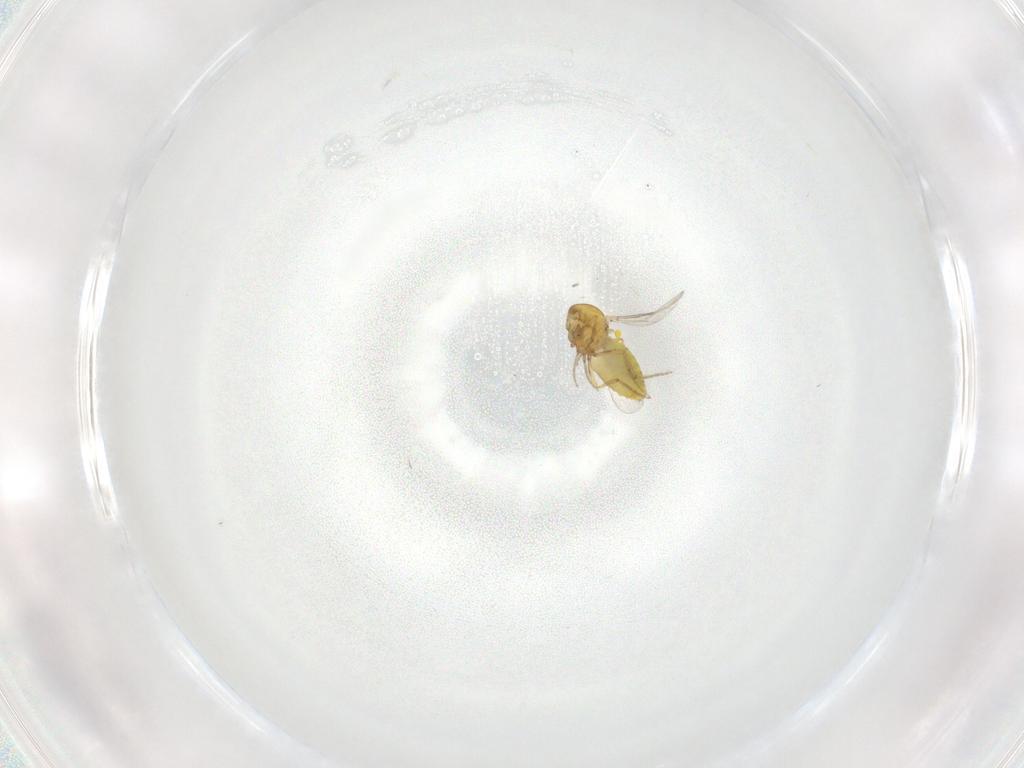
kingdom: Animalia
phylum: Arthropoda
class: Insecta
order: Diptera
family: Ceratopogonidae
